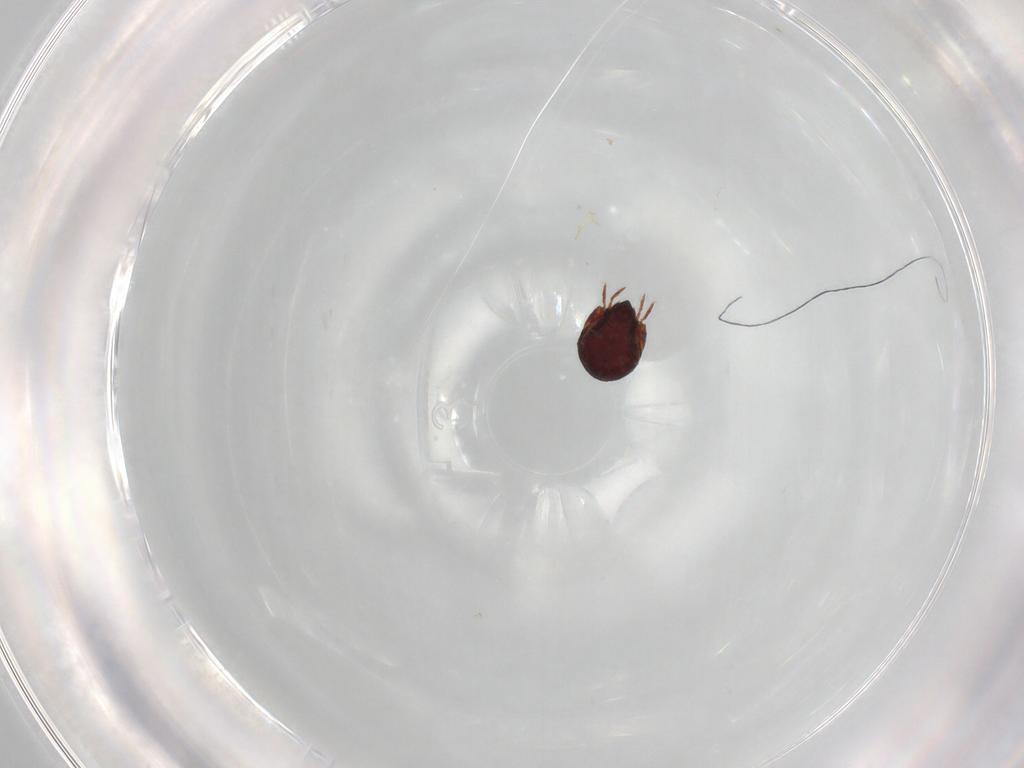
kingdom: Animalia
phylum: Arthropoda
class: Arachnida
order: Sarcoptiformes
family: Humerobatidae
